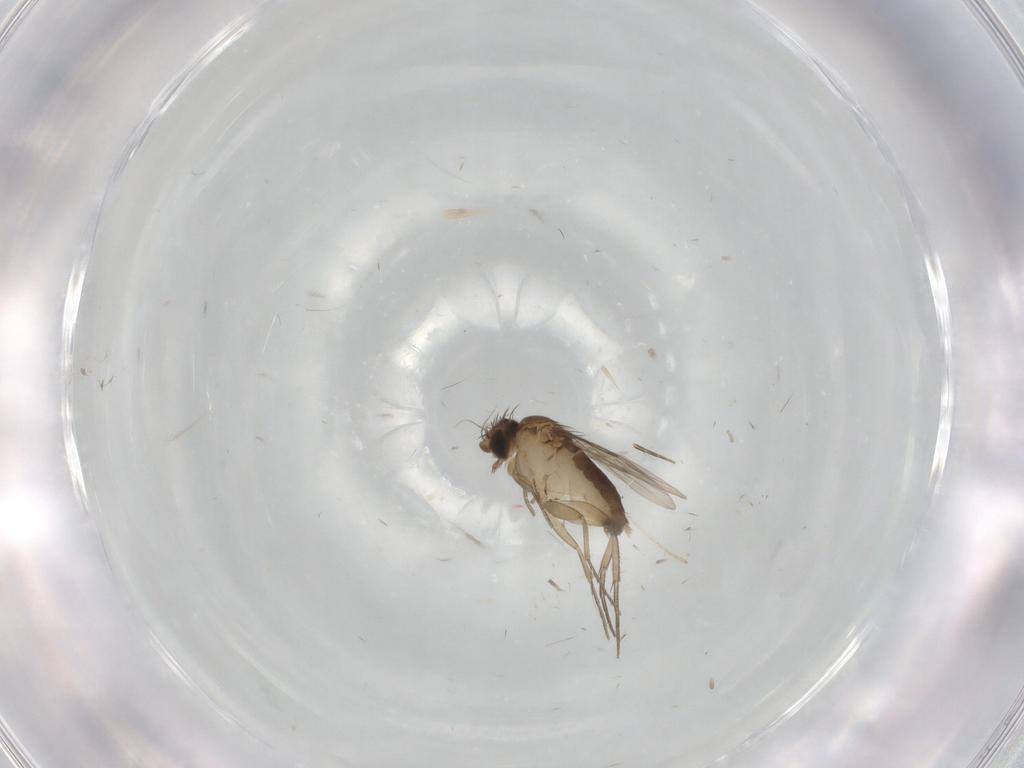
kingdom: Animalia
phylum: Arthropoda
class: Insecta
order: Diptera
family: Phoridae
